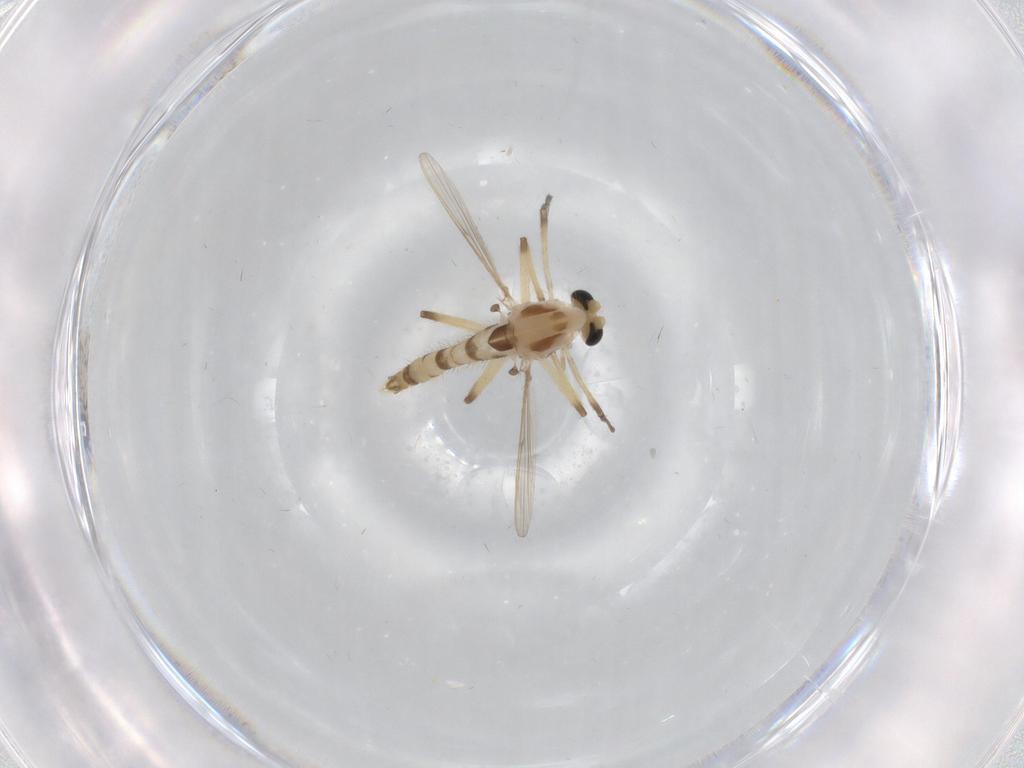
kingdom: Animalia
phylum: Arthropoda
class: Insecta
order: Diptera
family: Chironomidae
